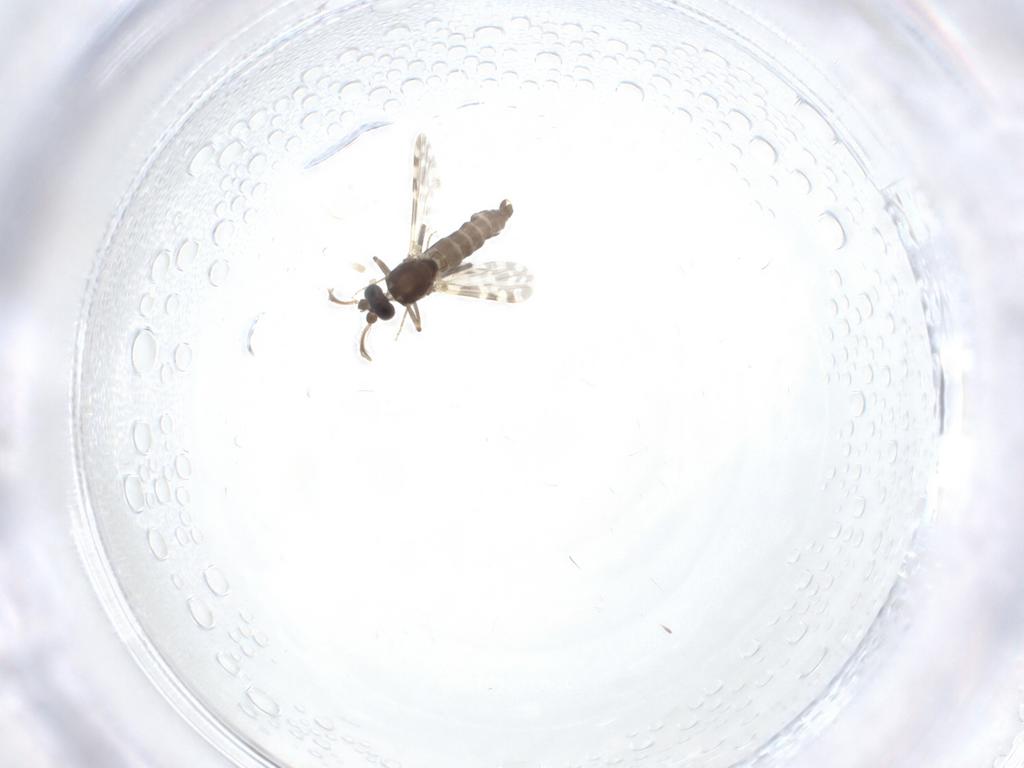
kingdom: Animalia
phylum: Arthropoda
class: Insecta
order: Diptera
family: Ceratopogonidae
